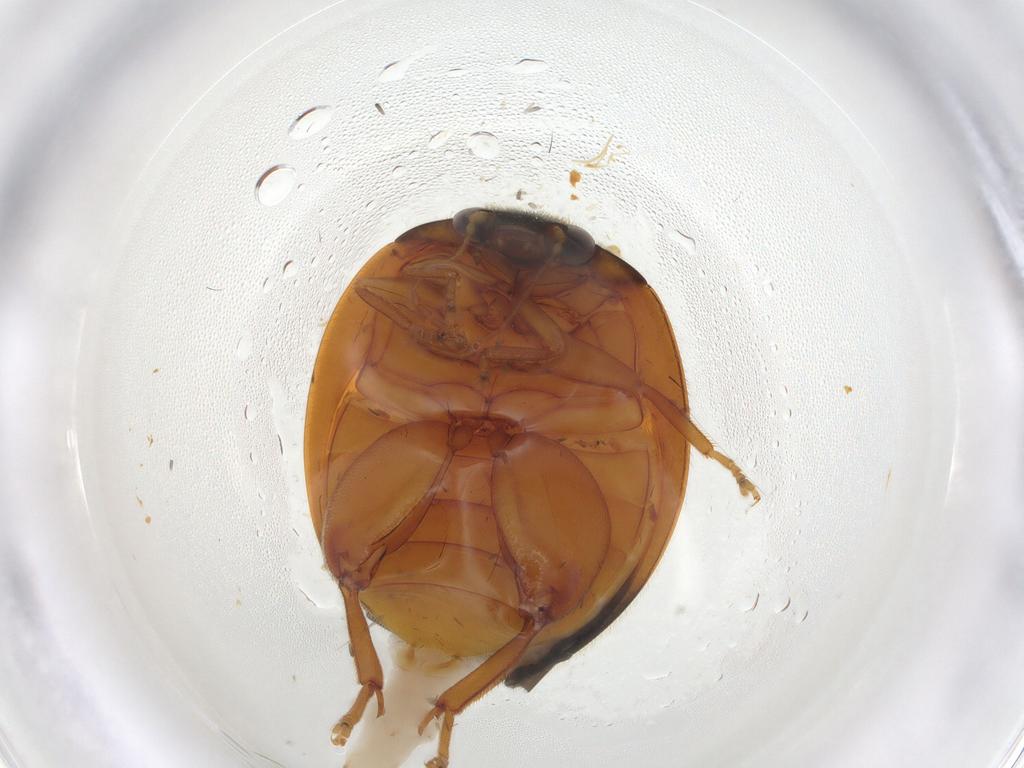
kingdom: Animalia
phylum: Arthropoda
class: Insecta
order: Coleoptera
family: Scirtidae
